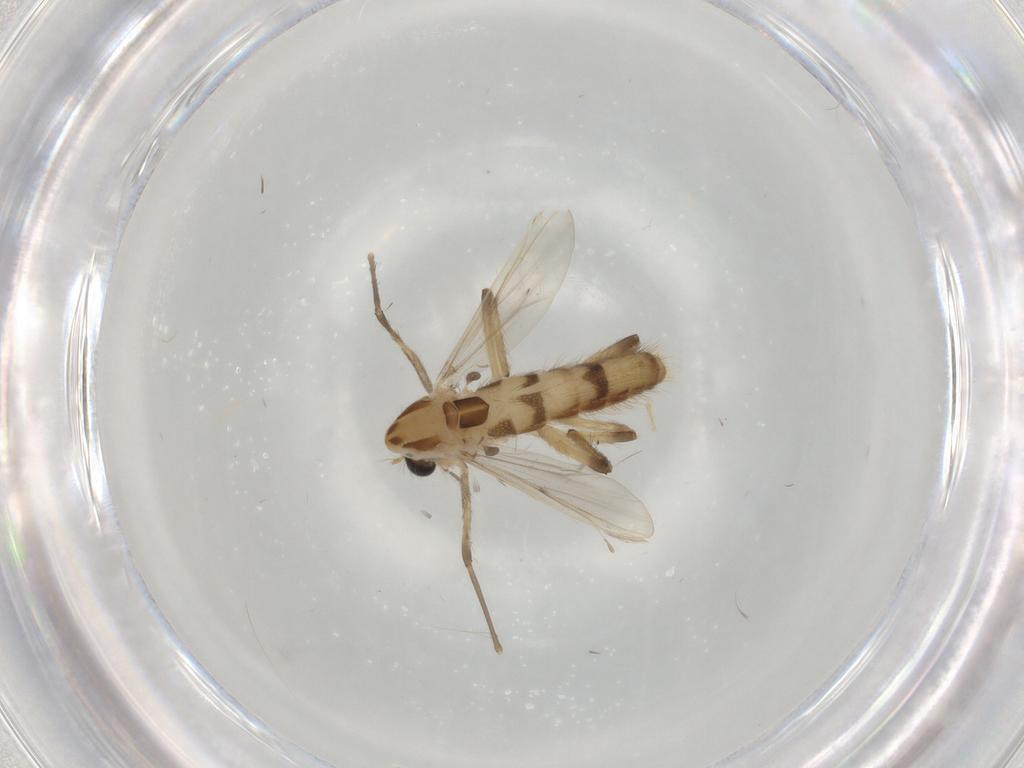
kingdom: Animalia
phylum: Arthropoda
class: Insecta
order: Diptera
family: Chironomidae
